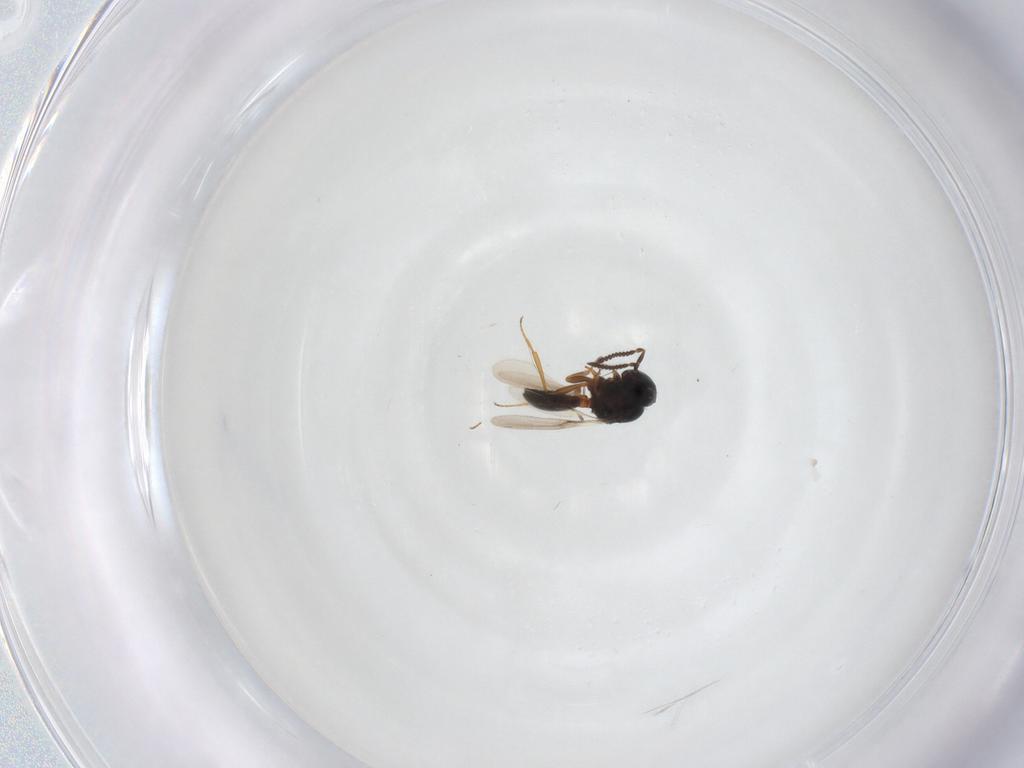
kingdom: Animalia
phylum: Arthropoda
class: Insecta
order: Hymenoptera
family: Scelionidae
